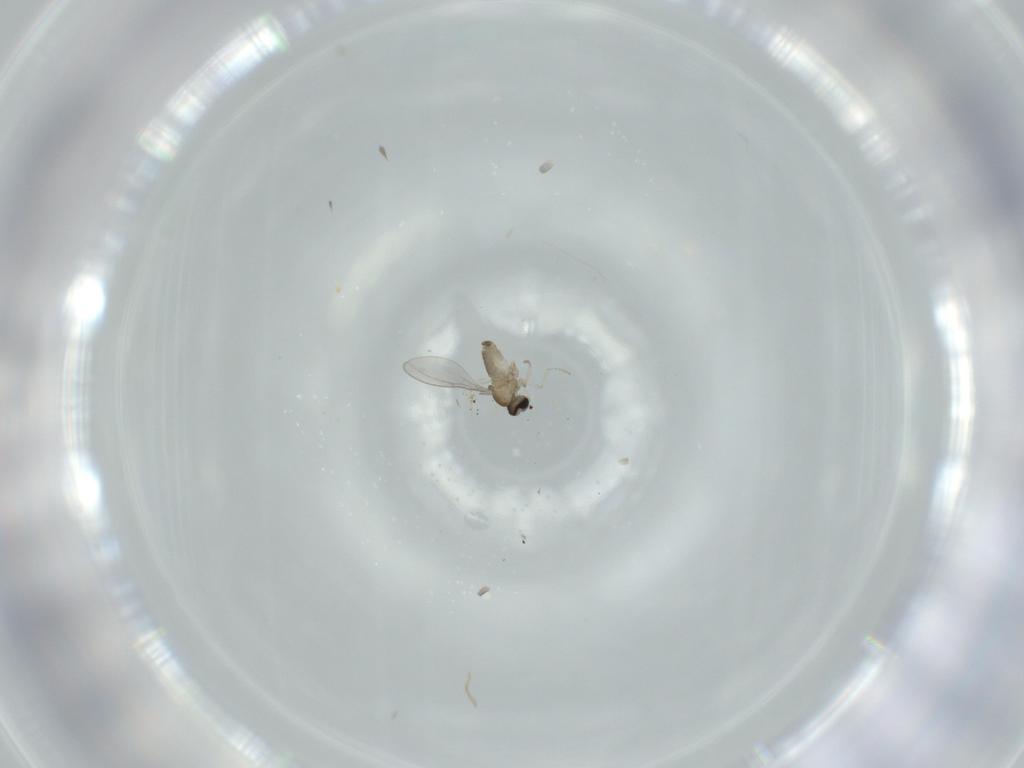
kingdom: Animalia
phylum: Arthropoda
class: Insecta
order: Diptera
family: Cecidomyiidae
